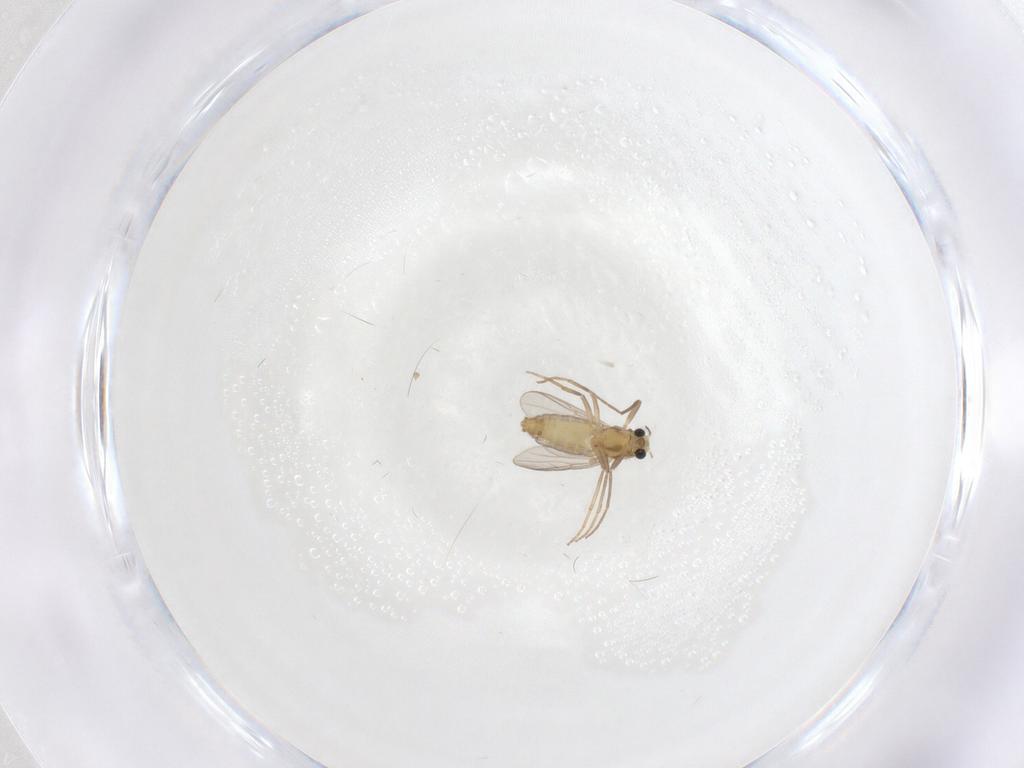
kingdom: Animalia
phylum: Arthropoda
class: Insecta
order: Diptera
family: Chironomidae
